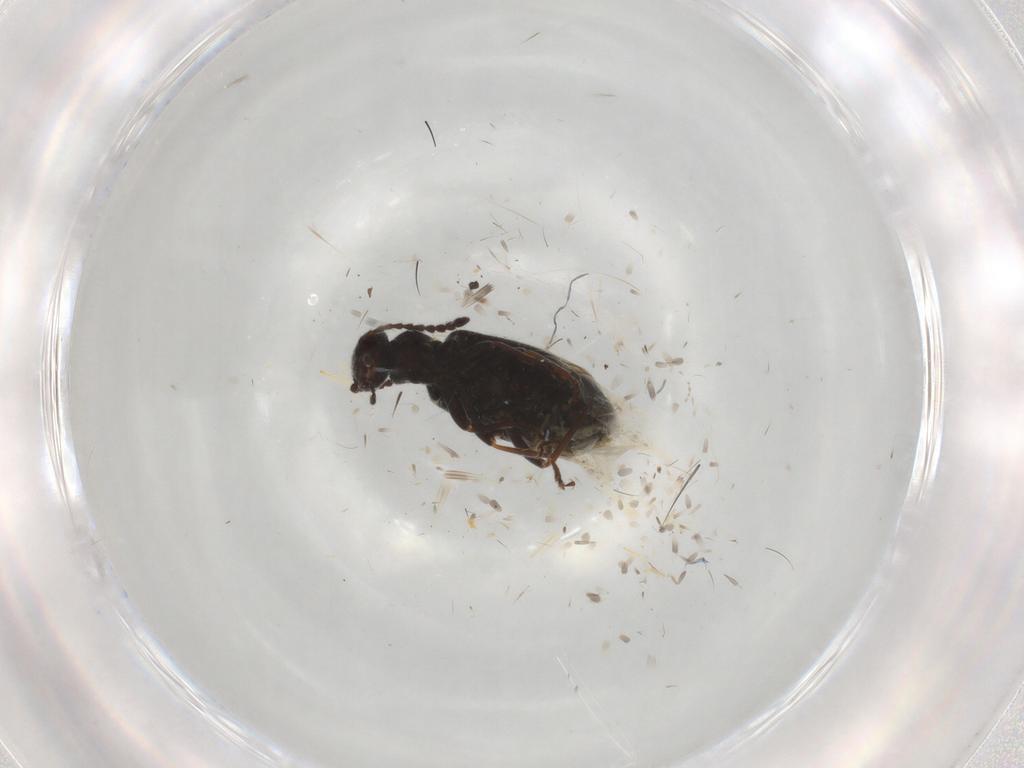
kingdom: Animalia
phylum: Arthropoda
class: Insecta
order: Coleoptera
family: Anthicidae
